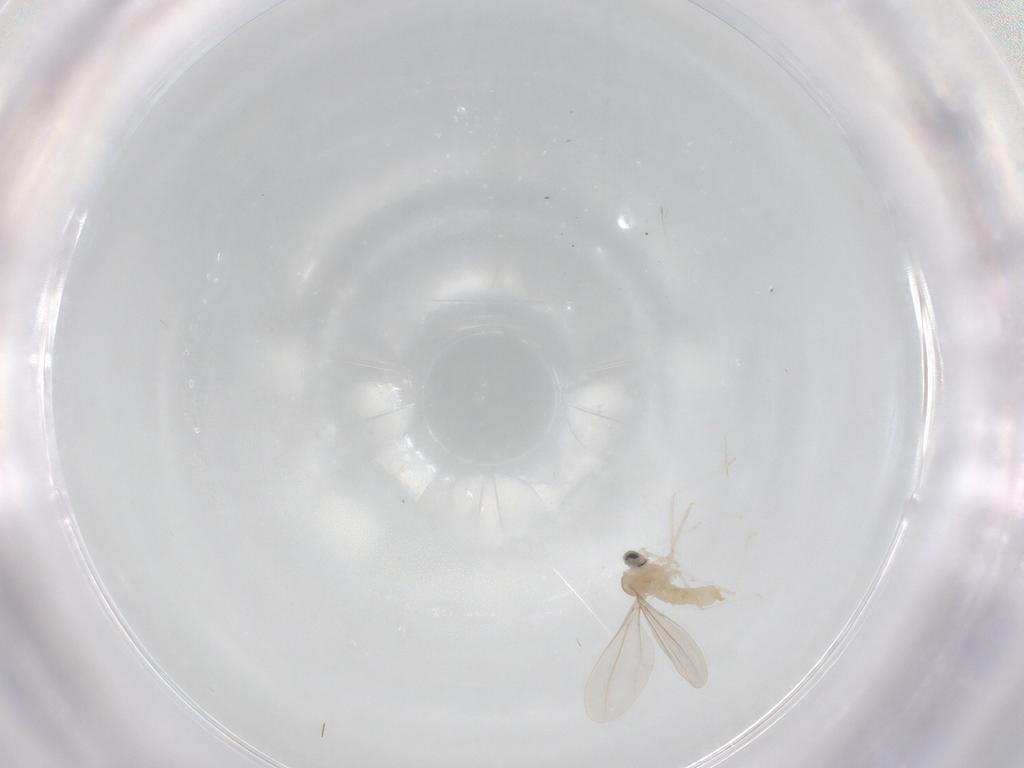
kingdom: Animalia
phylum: Arthropoda
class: Insecta
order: Diptera
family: Cecidomyiidae
